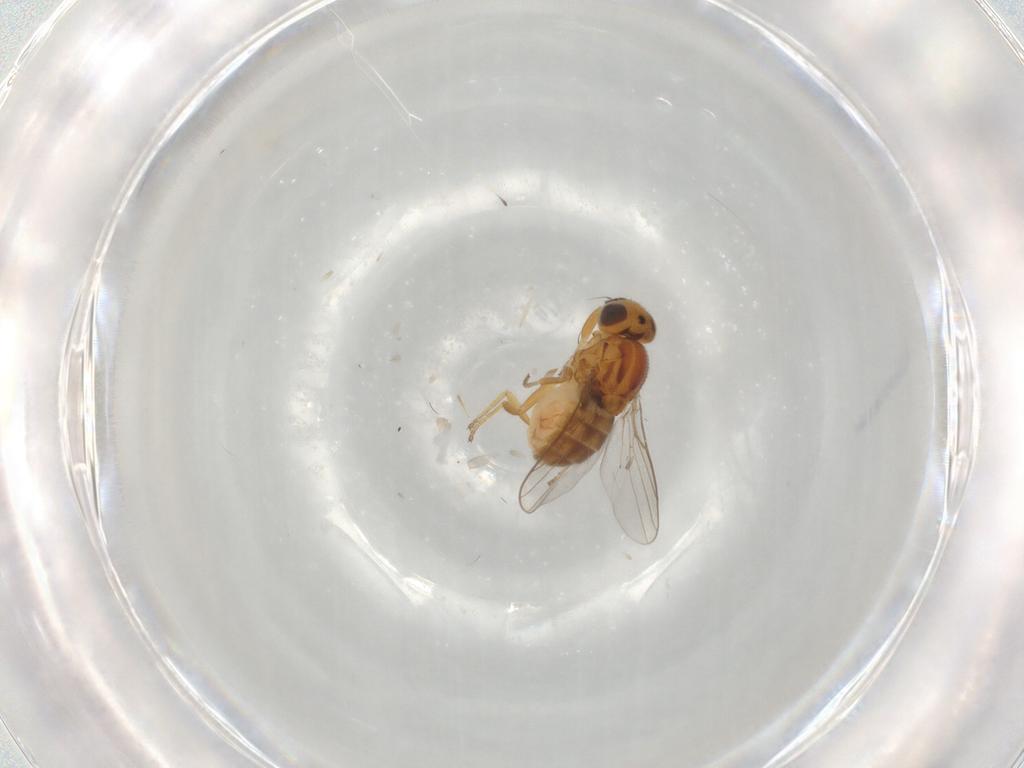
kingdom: Animalia
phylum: Arthropoda
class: Insecta
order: Diptera
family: Chloropidae
